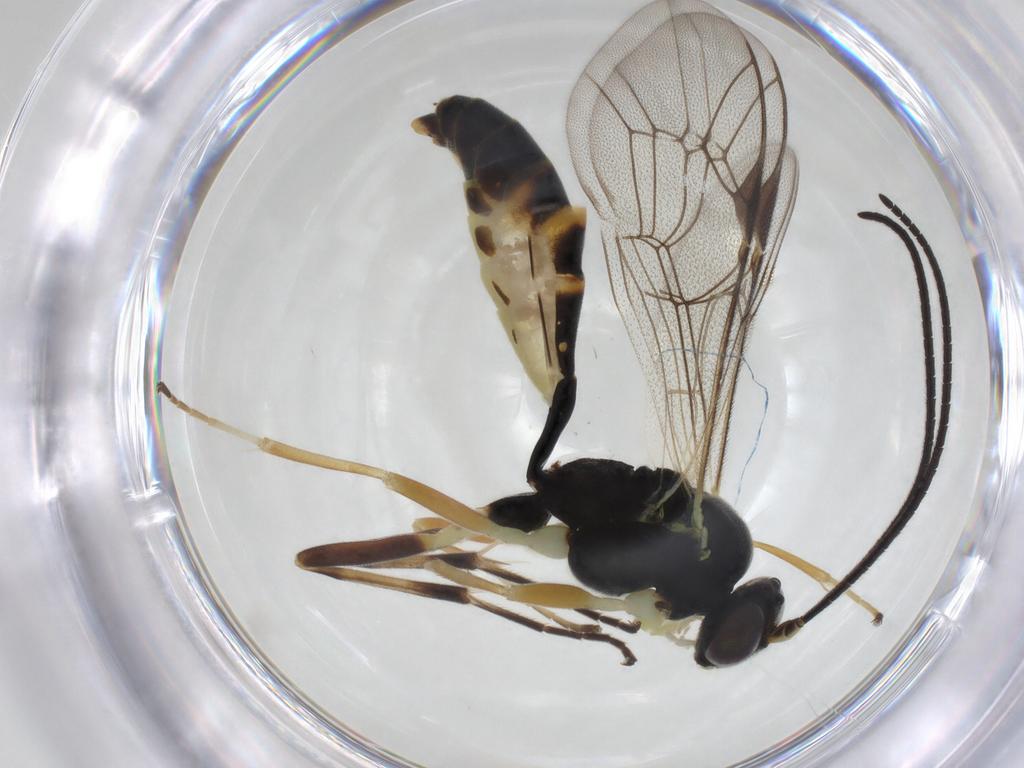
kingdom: Animalia
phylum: Arthropoda
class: Insecta
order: Hymenoptera
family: Ichneumonidae
